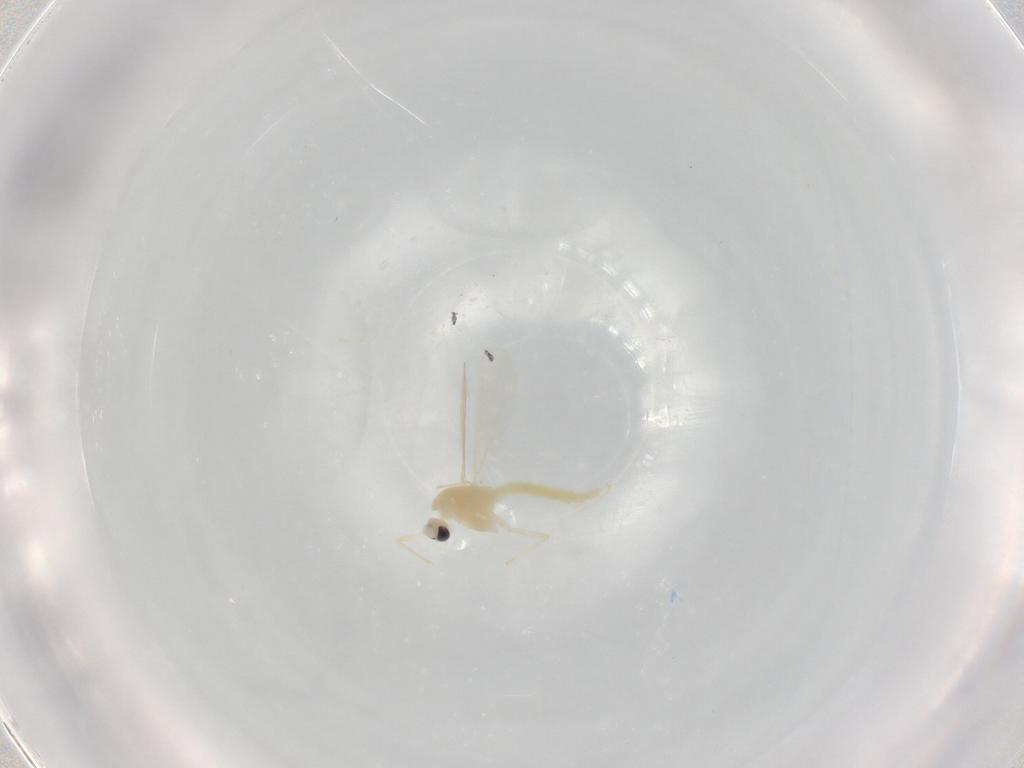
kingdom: Animalia
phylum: Arthropoda
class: Insecta
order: Diptera
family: Chironomidae
